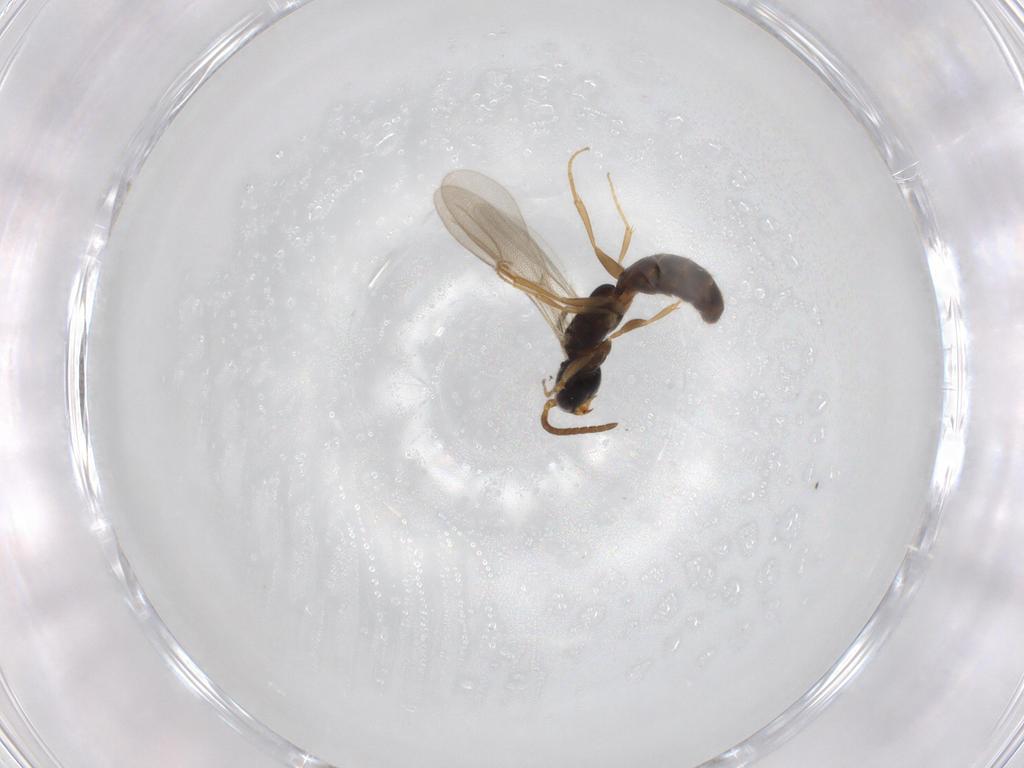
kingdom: Animalia
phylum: Arthropoda
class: Insecta
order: Hymenoptera
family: Bethylidae
